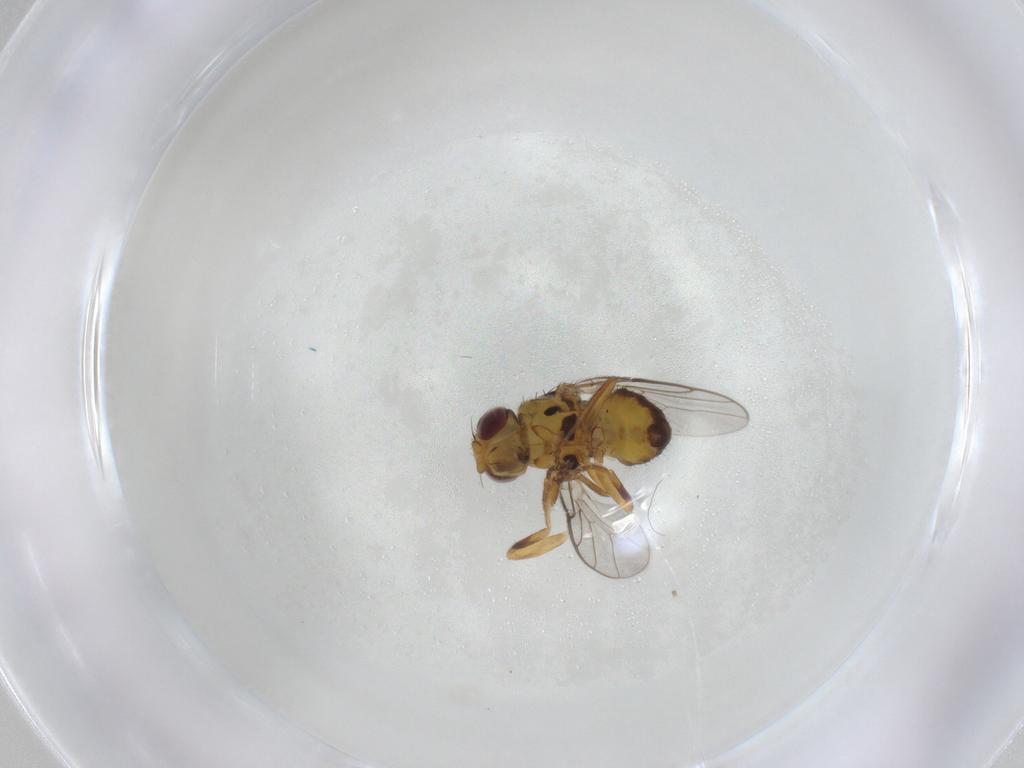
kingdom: Animalia
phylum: Arthropoda
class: Insecta
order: Diptera
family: Chloropidae
